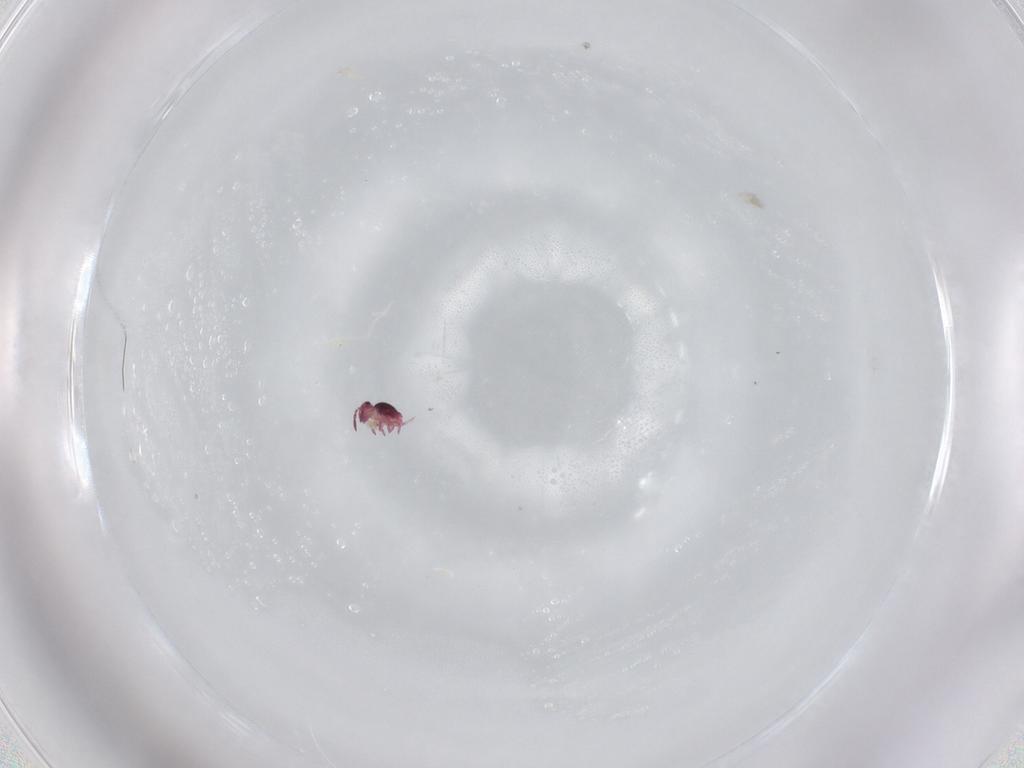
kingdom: Animalia
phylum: Arthropoda
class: Collembola
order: Symphypleona
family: Sminthurididae
